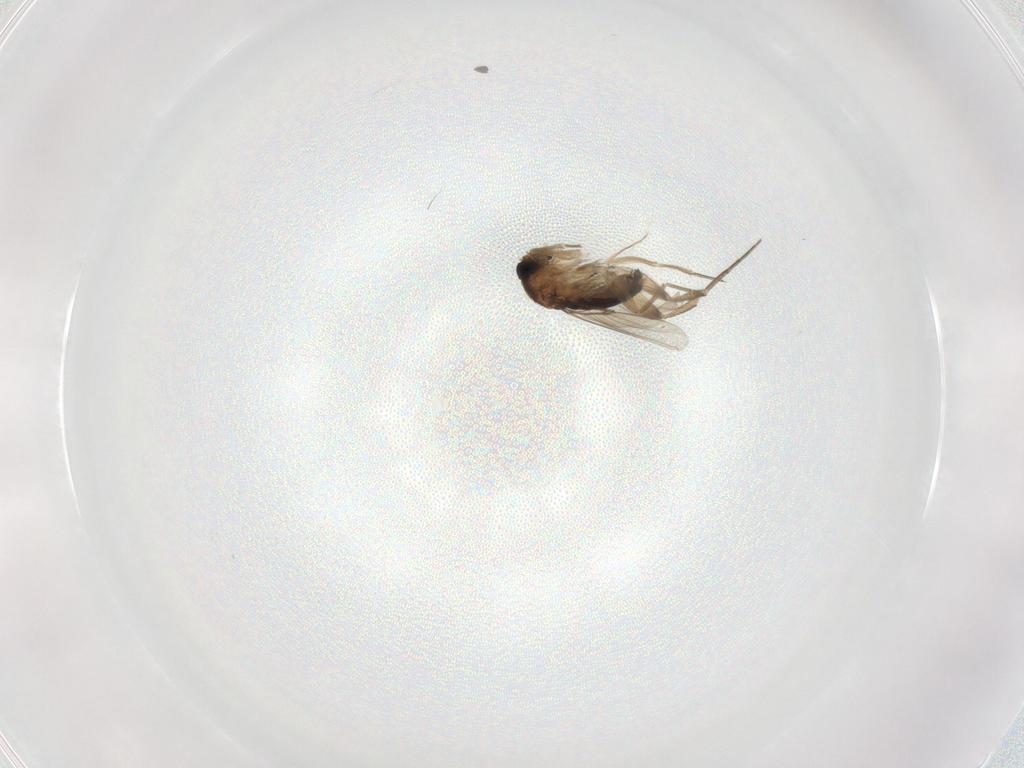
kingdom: Animalia
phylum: Arthropoda
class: Insecta
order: Diptera
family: Phoridae
